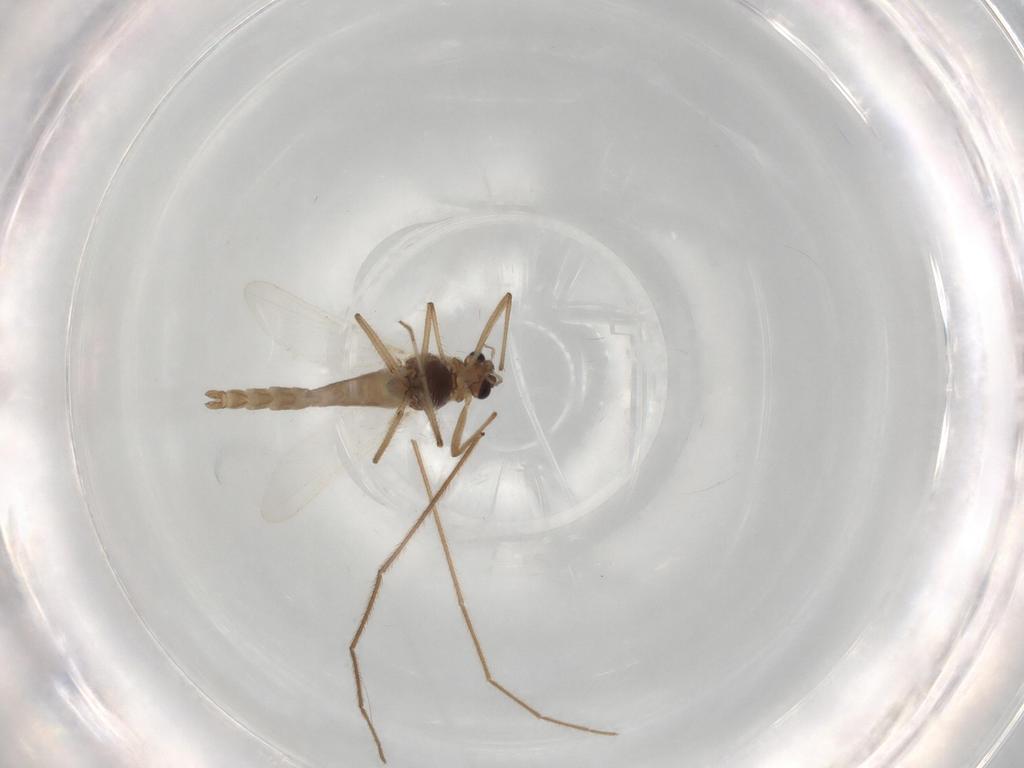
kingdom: Animalia
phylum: Arthropoda
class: Insecta
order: Diptera
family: Chironomidae
